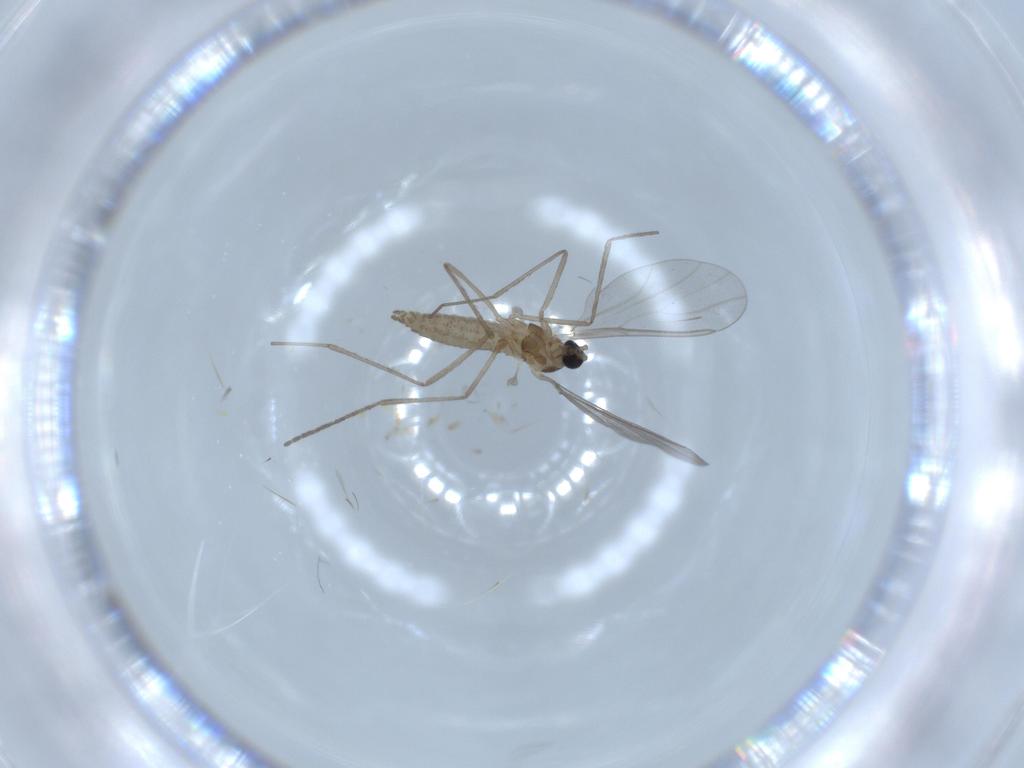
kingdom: Animalia
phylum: Arthropoda
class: Insecta
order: Diptera
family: Cecidomyiidae
